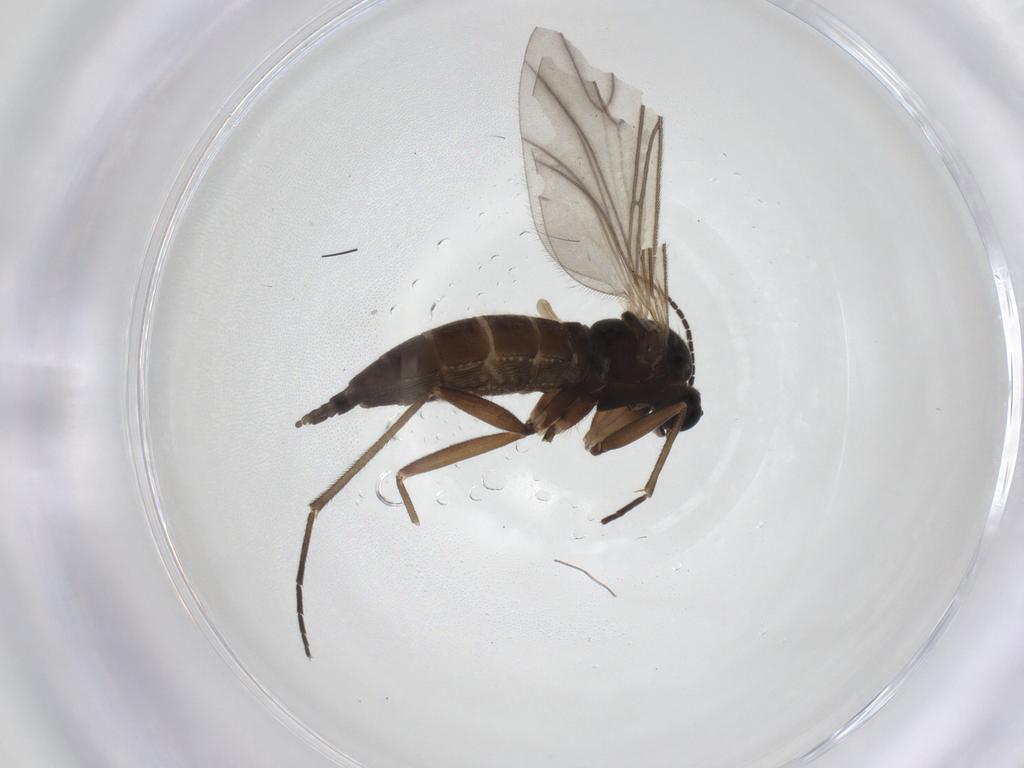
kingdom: Animalia
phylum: Arthropoda
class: Insecta
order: Diptera
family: Sciaridae
